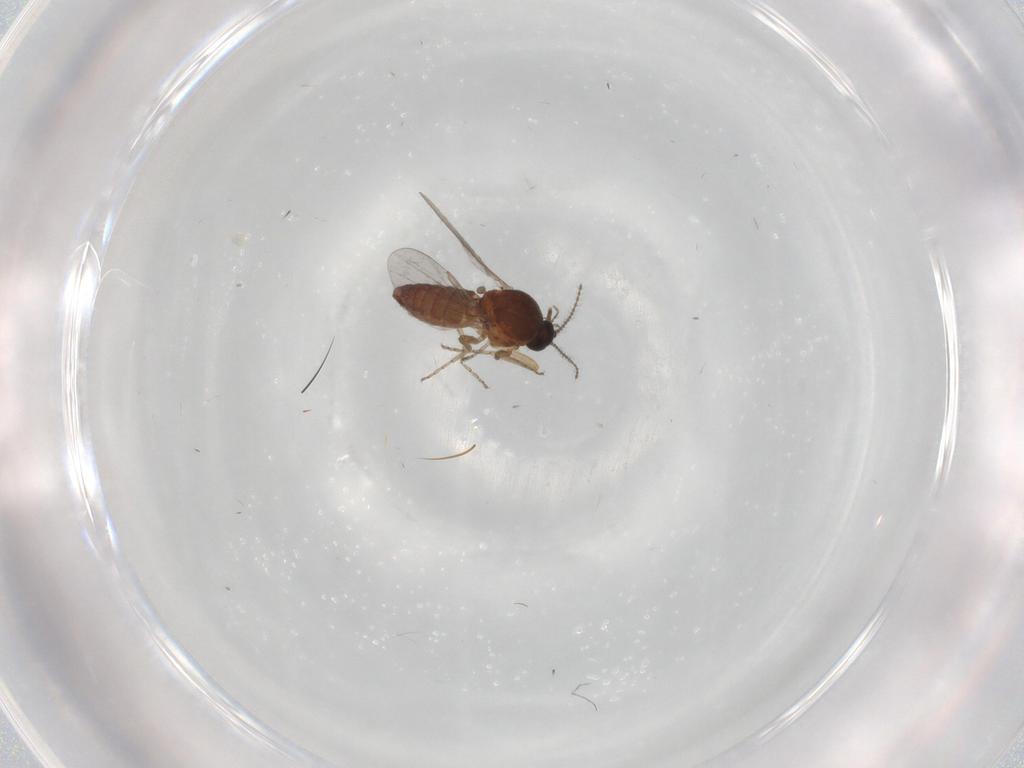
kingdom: Animalia
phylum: Arthropoda
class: Insecta
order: Diptera
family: Ceratopogonidae
